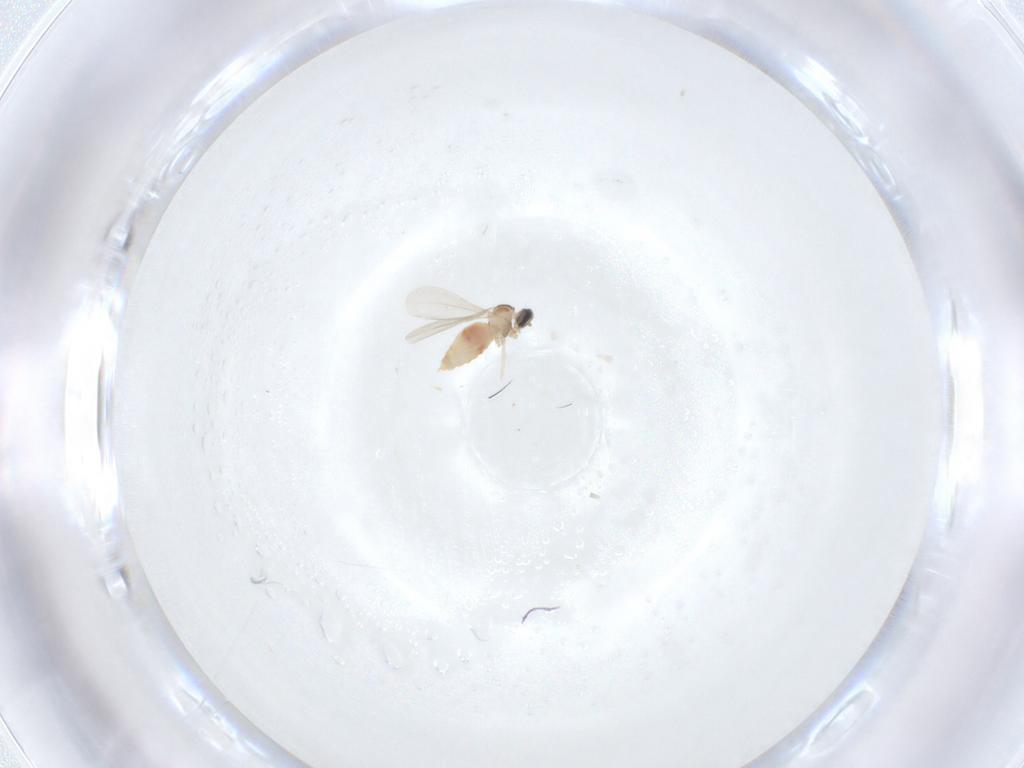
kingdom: Animalia
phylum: Arthropoda
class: Insecta
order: Diptera
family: Cecidomyiidae
